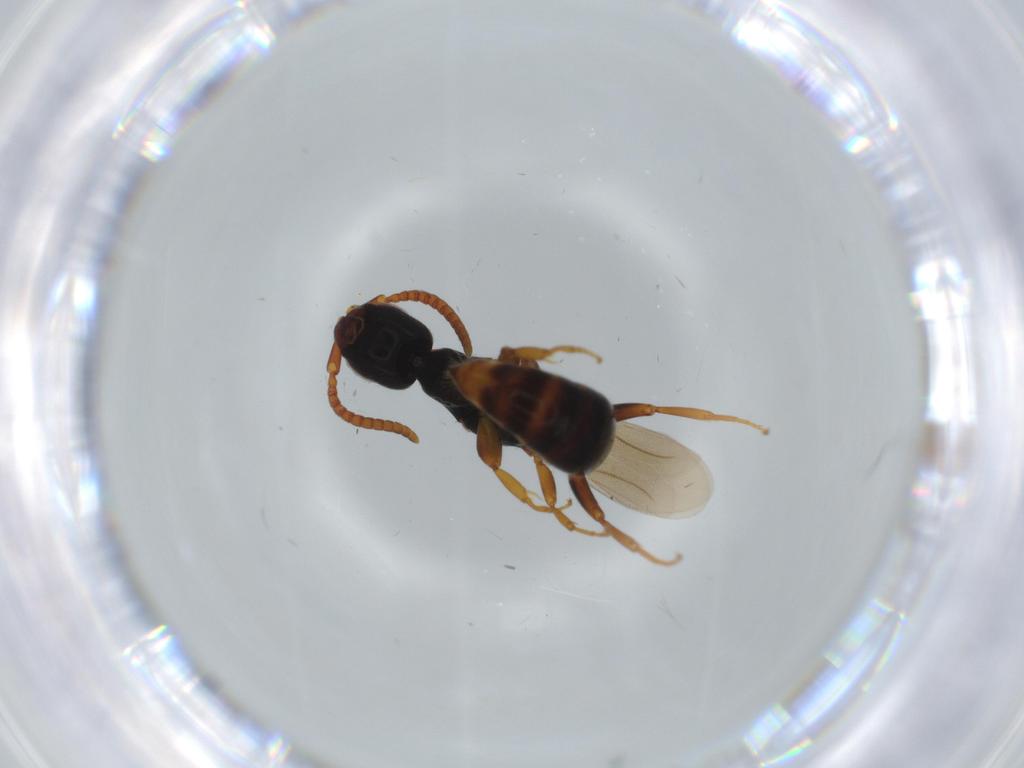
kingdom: Animalia
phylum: Arthropoda
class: Insecta
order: Hymenoptera
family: Bethylidae
